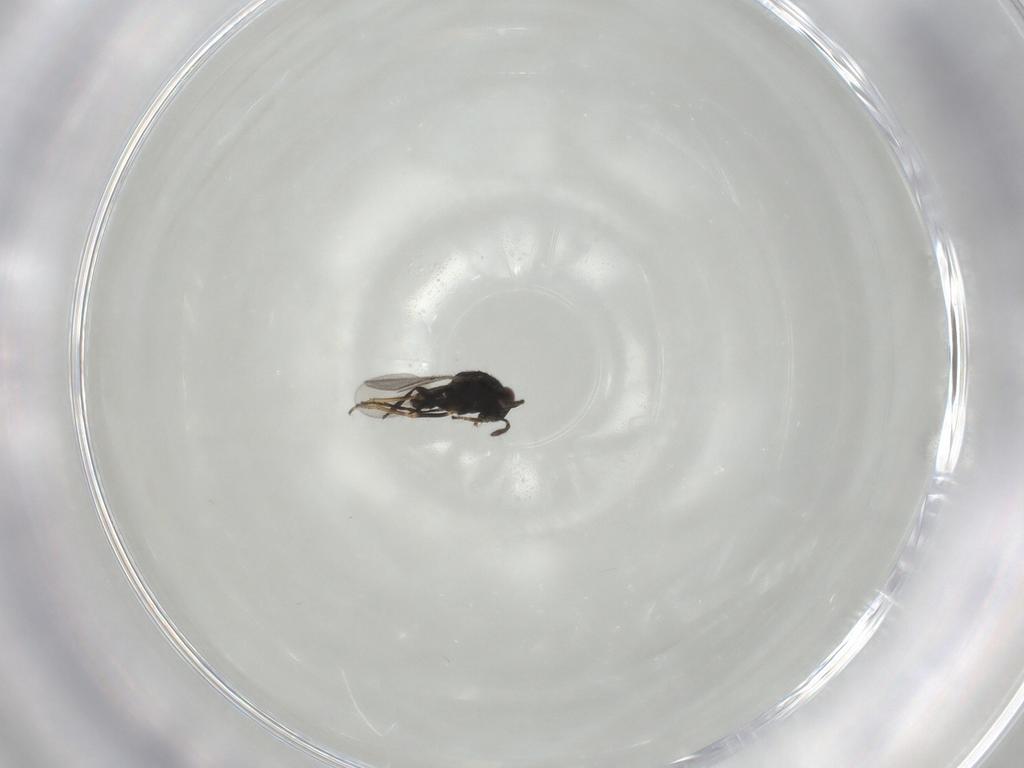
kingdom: Animalia
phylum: Arthropoda
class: Insecta
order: Hymenoptera
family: Encyrtidae
